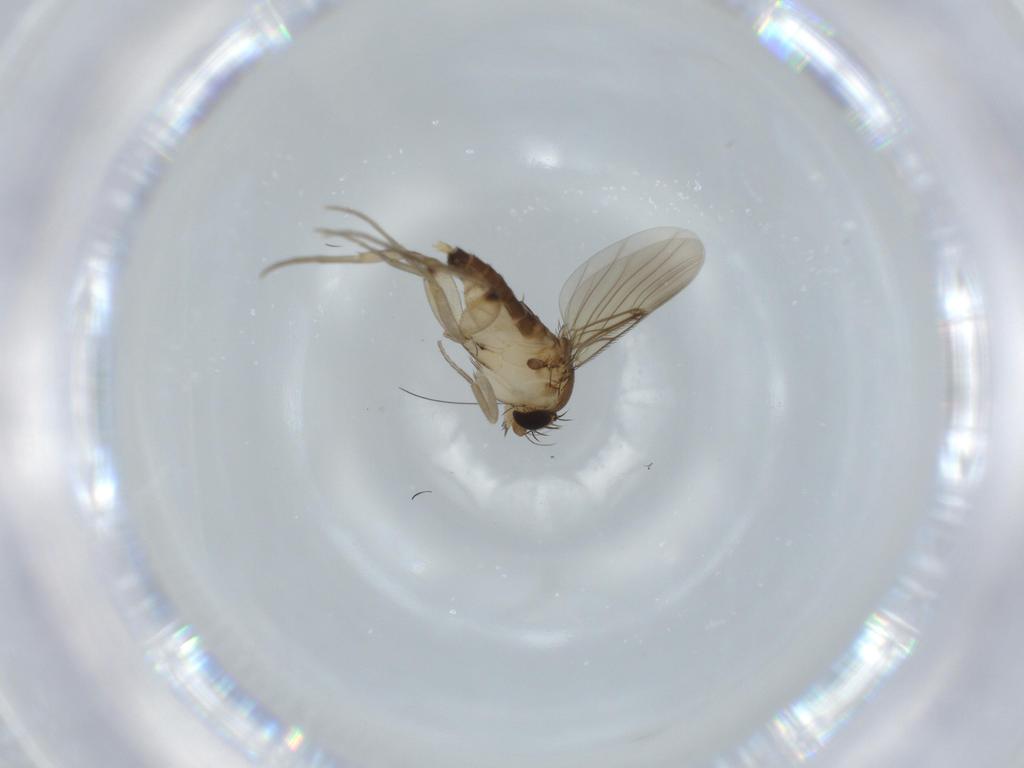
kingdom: Animalia
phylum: Arthropoda
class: Insecta
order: Diptera
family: Phoridae
